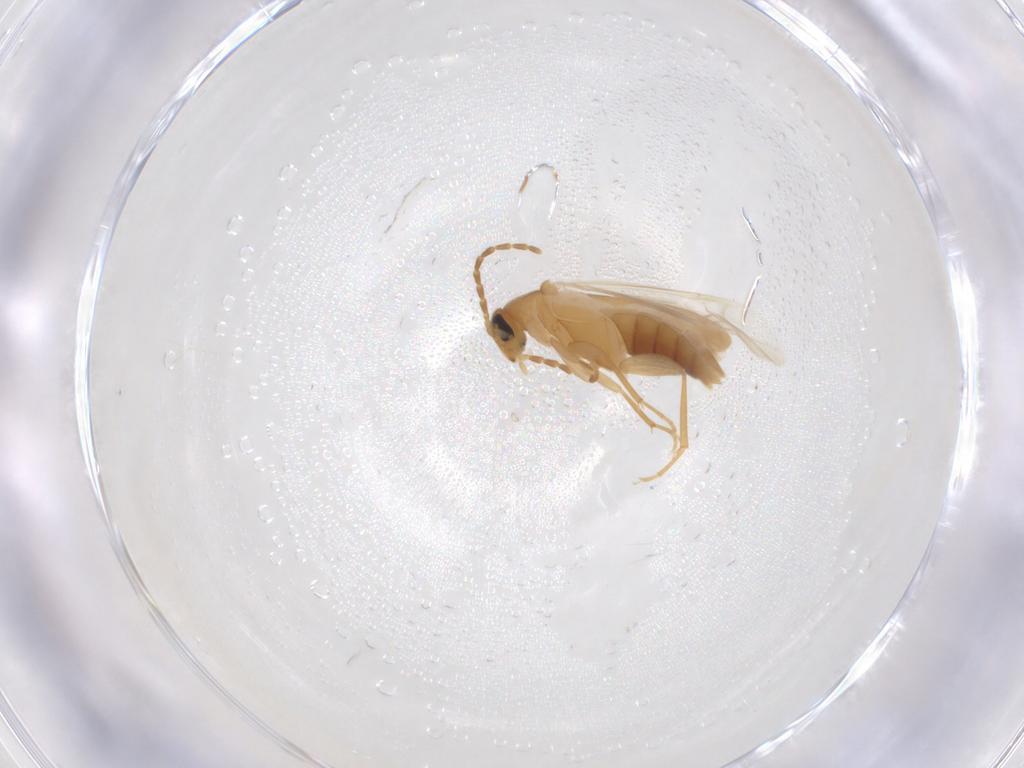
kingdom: Animalia
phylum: Arthropoda
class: Insecta
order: Coleoptera
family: Scraptiidae
